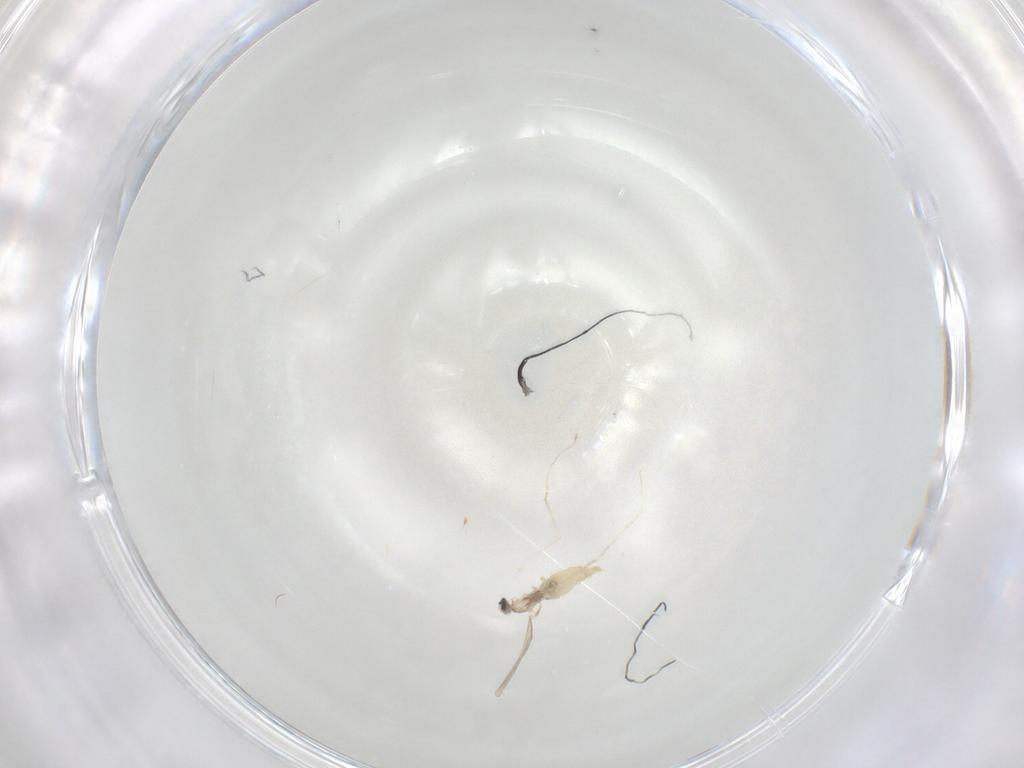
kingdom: Animalia
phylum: Arthropoda
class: Insecta
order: Diptera
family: Cecidomyiidae
